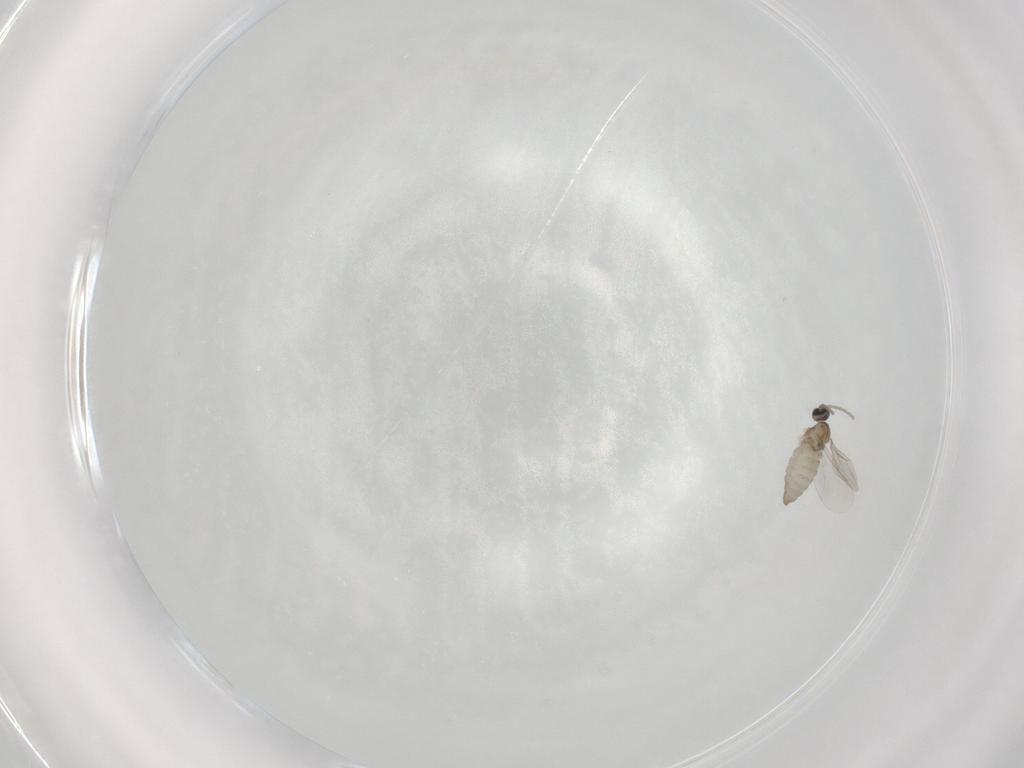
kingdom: Animalia
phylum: Arthropoda
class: Insecta
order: Diptera
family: Cecidomyiidae
